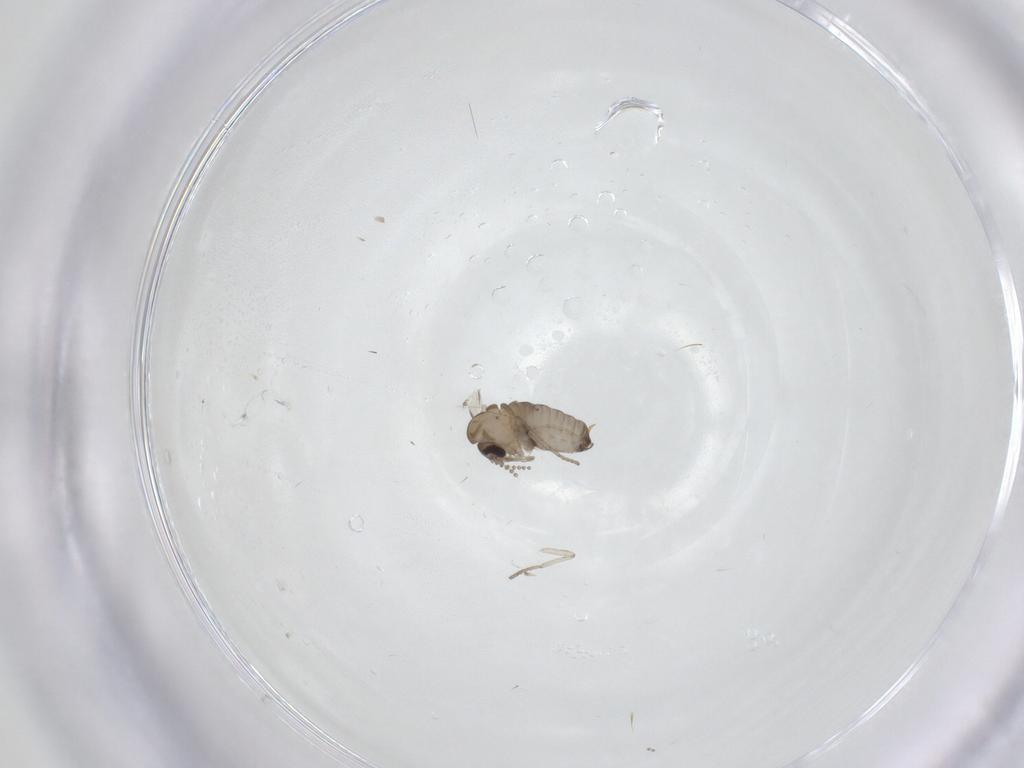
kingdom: Animalia
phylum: Arthropoda
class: Insecta
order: Diptera
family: Psychodidae
